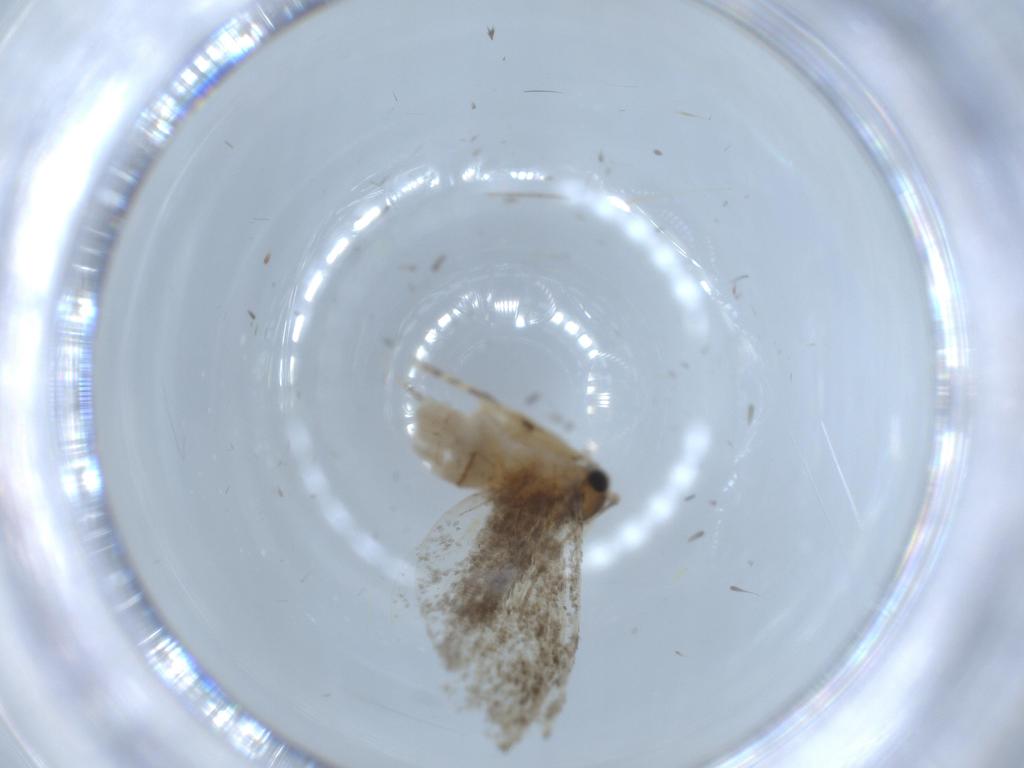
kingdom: Animalia
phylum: Arthropoda
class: Insecta
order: Lepidoptera
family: Tineidae
